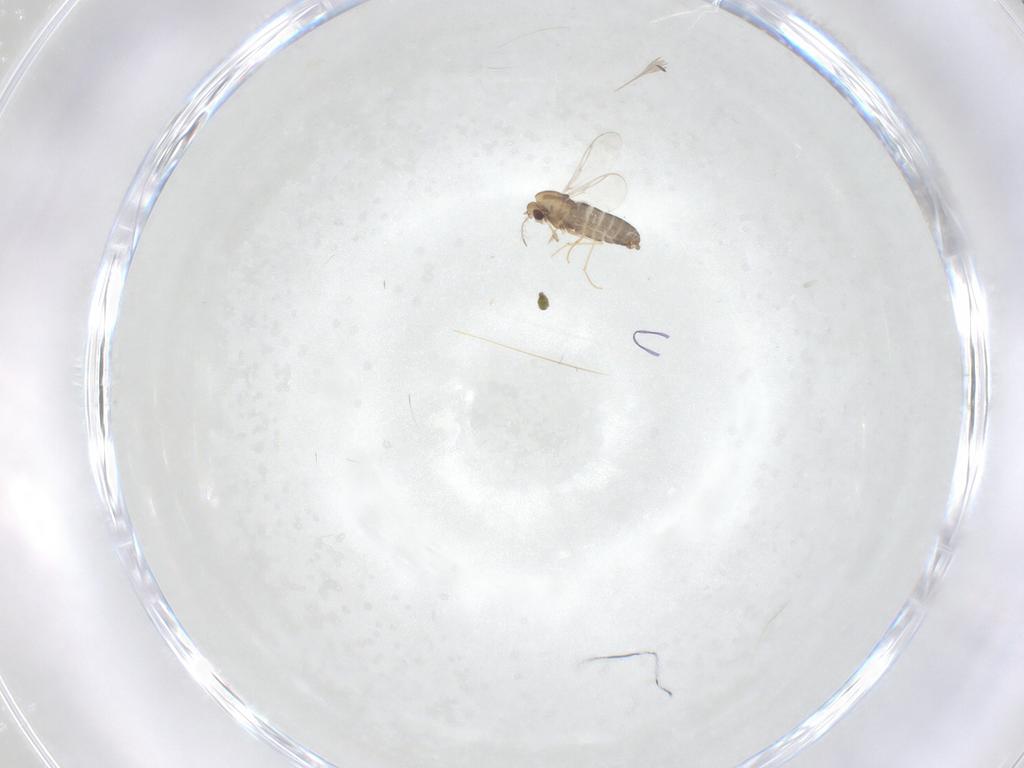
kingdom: Animalia
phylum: Arthropoda
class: Insecta
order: Diptera
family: Chironomidae
